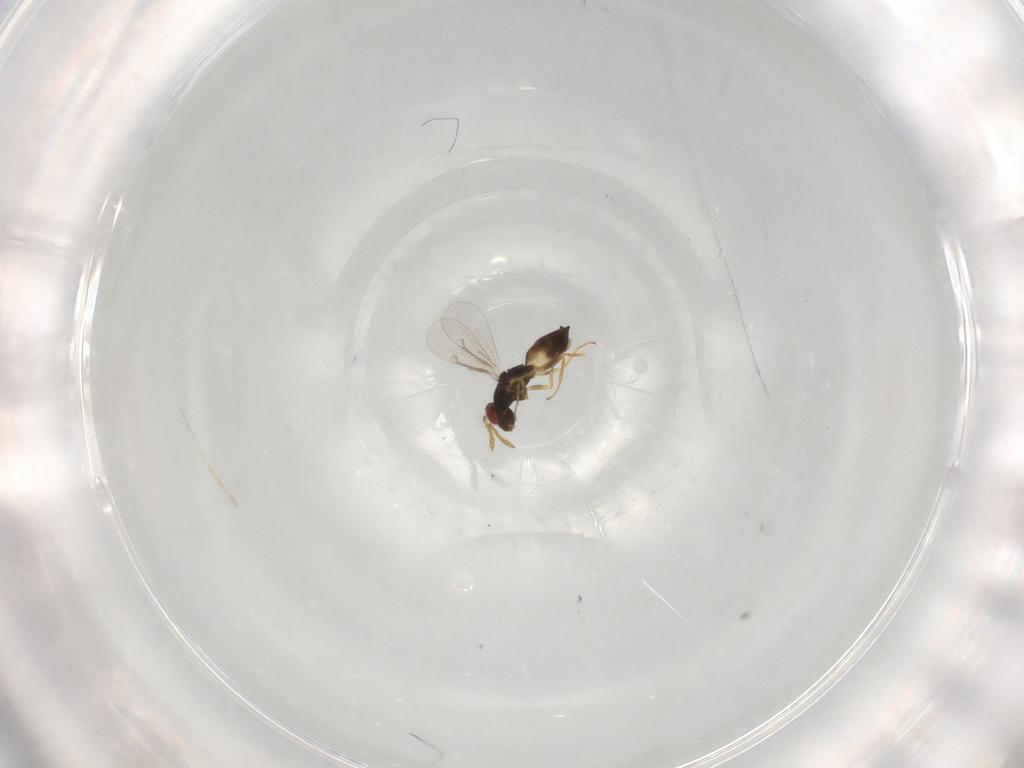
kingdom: Animalia
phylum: Arthropoda
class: Insecta
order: Hymenoptera
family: Eulophidae
